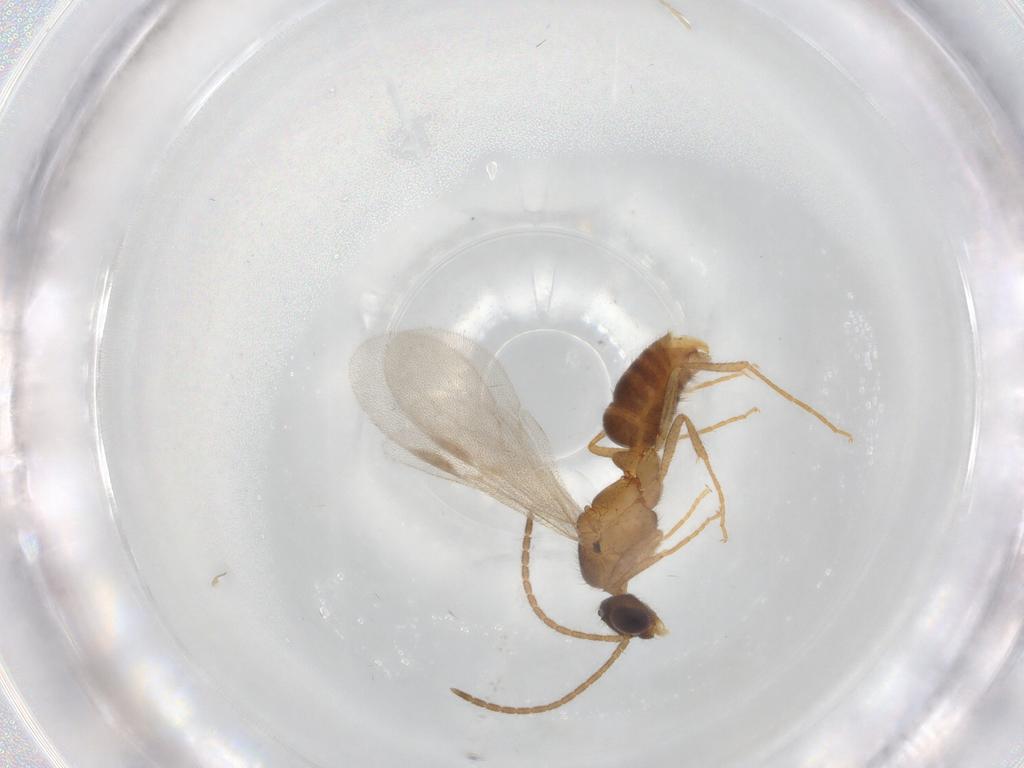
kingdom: Animalia
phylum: Arthropoda
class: Insecta
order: Hymenoptera
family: Formicidae
